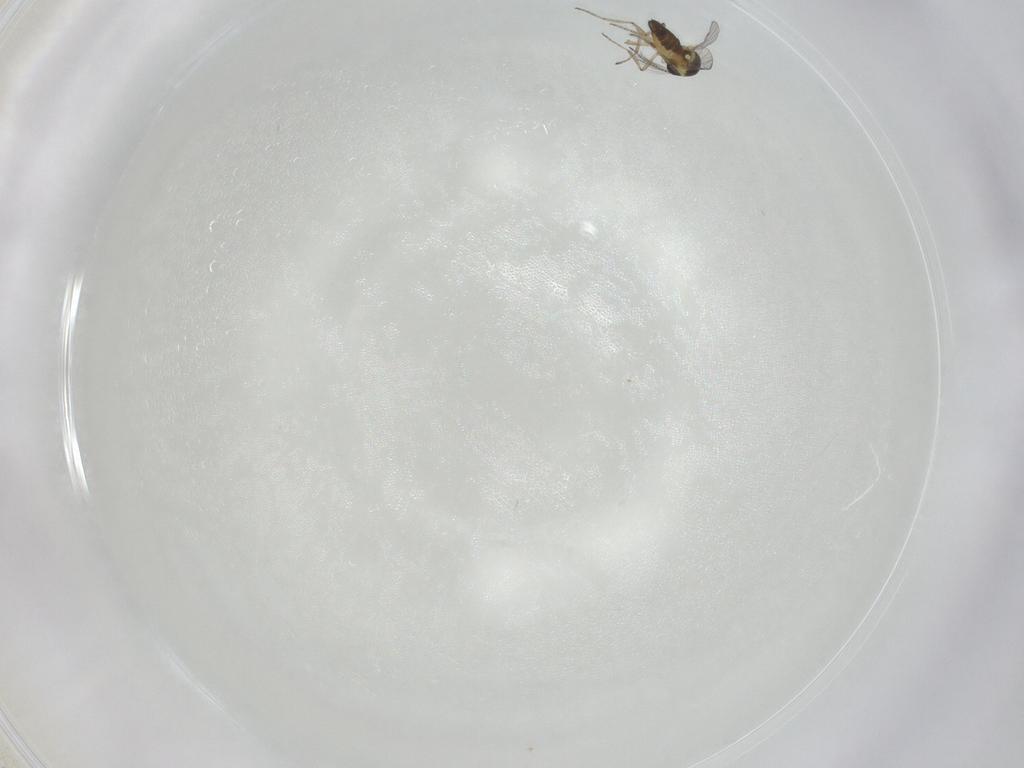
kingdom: Animalia
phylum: Arthropoda
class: Insecta
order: Diptera
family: Ceratopogonidae
